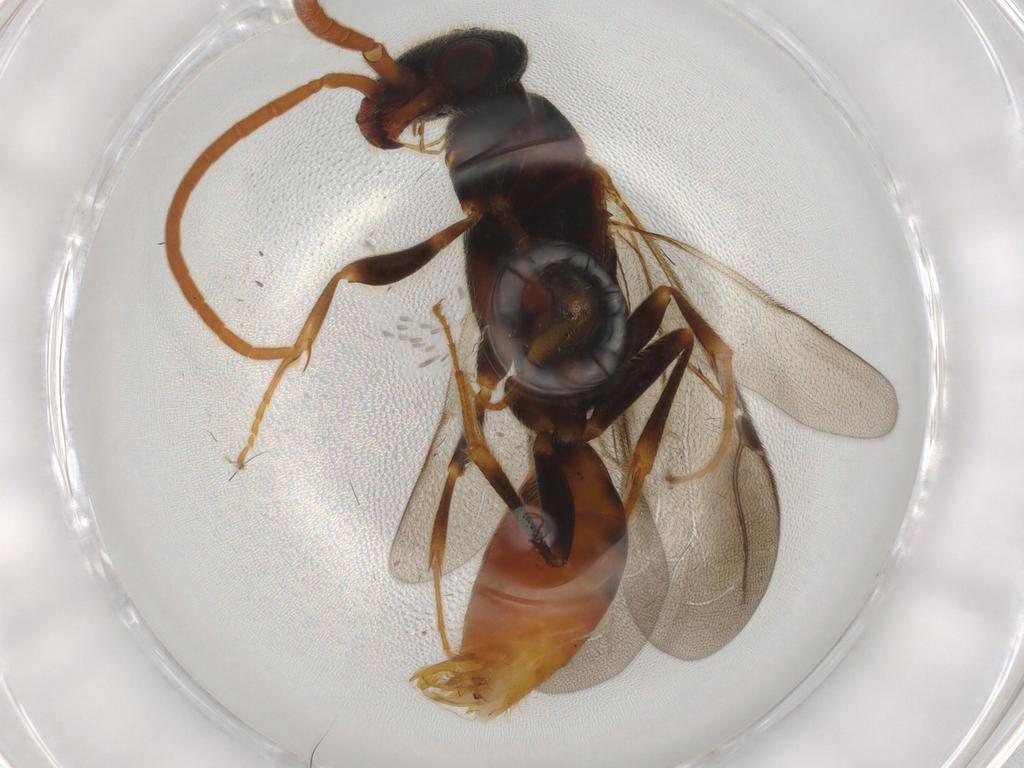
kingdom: Animalia
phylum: Arthropoda
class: Insecta
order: Hymenoptera
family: Bethylidae
